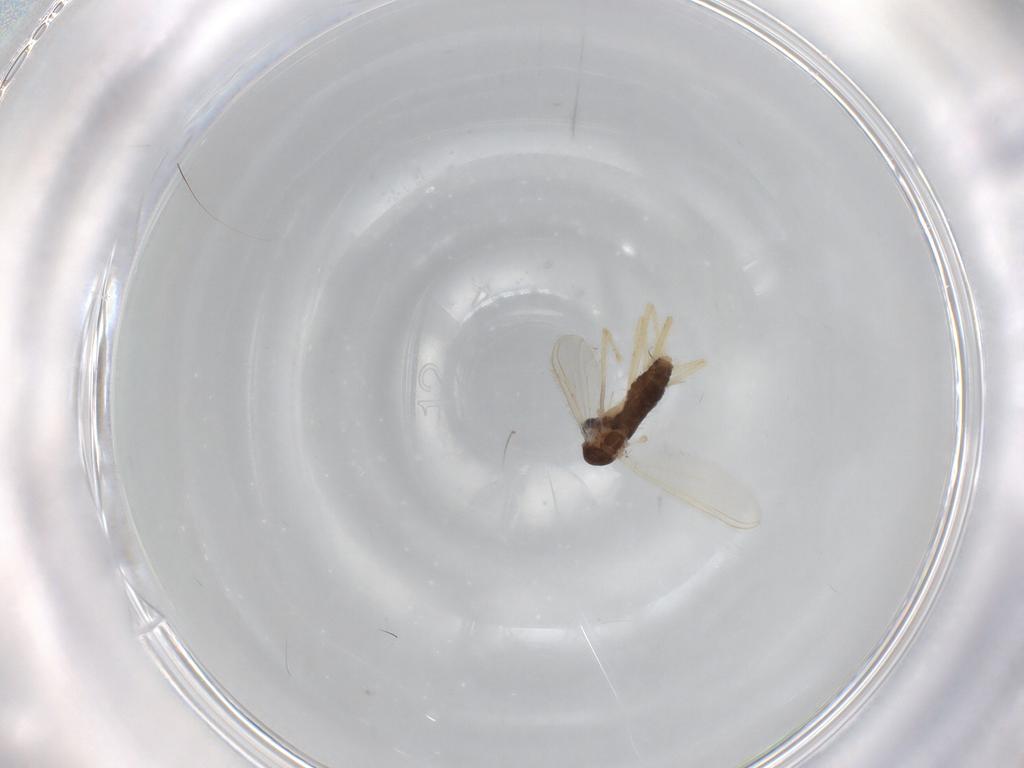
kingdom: Animalia
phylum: Arthropoda
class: Insecta
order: Diptera
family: Chironomidae
